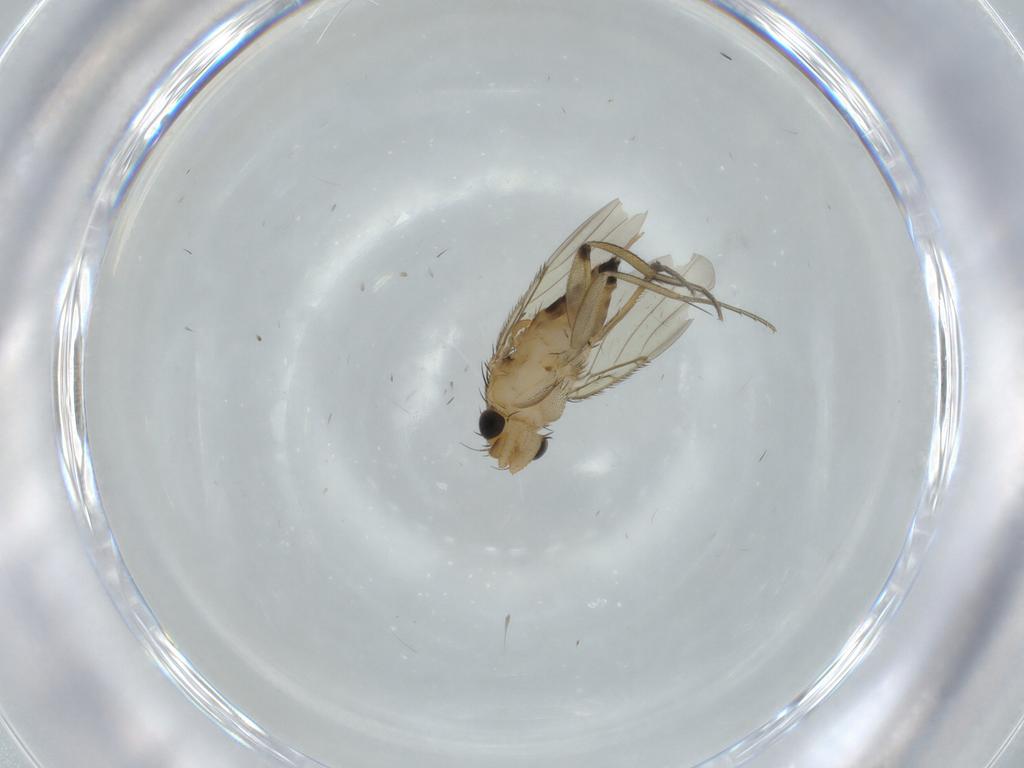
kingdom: Animalia
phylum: Arthropoda
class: Insecta
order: Diptera
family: Phoridae
